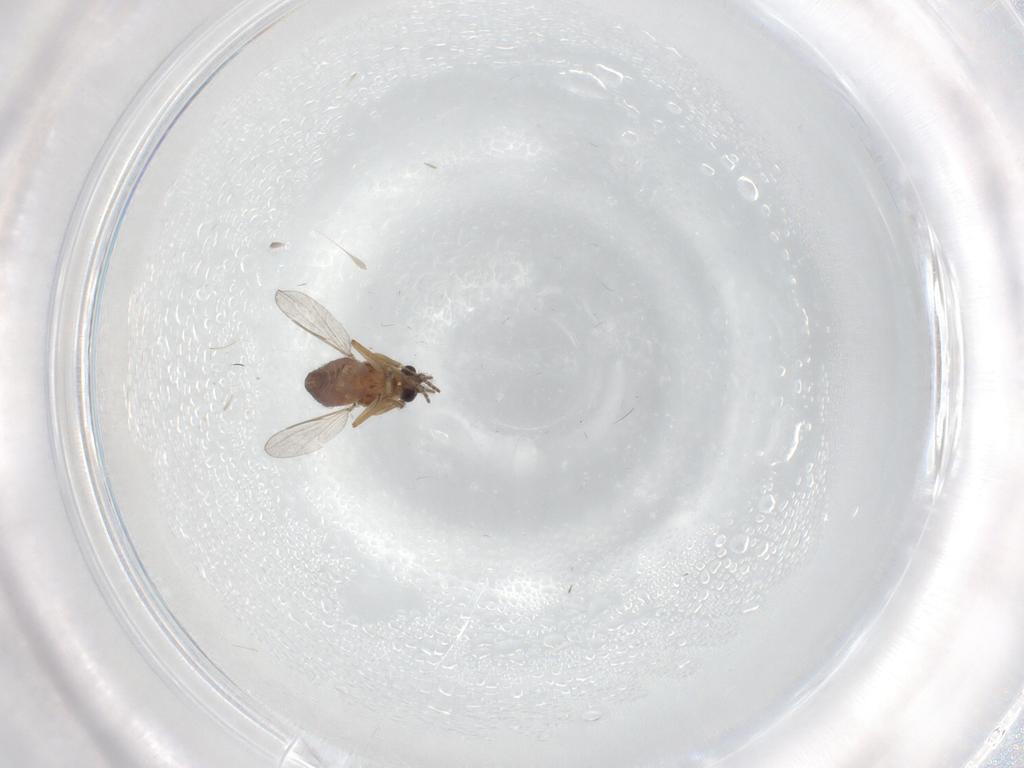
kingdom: Animalia
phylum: Arthropoda
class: Insecta
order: Diptera
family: Ceratopogonidae
